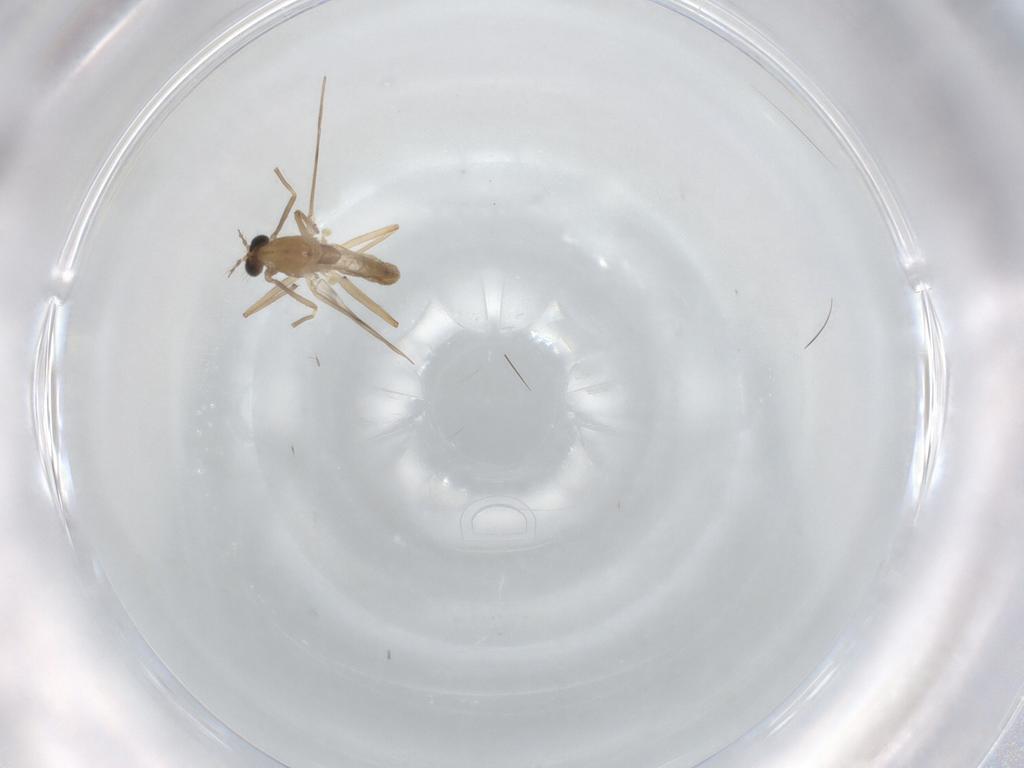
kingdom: Animalia
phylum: Arthropoda
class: Insecta
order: Diptera
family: Chironomidae
